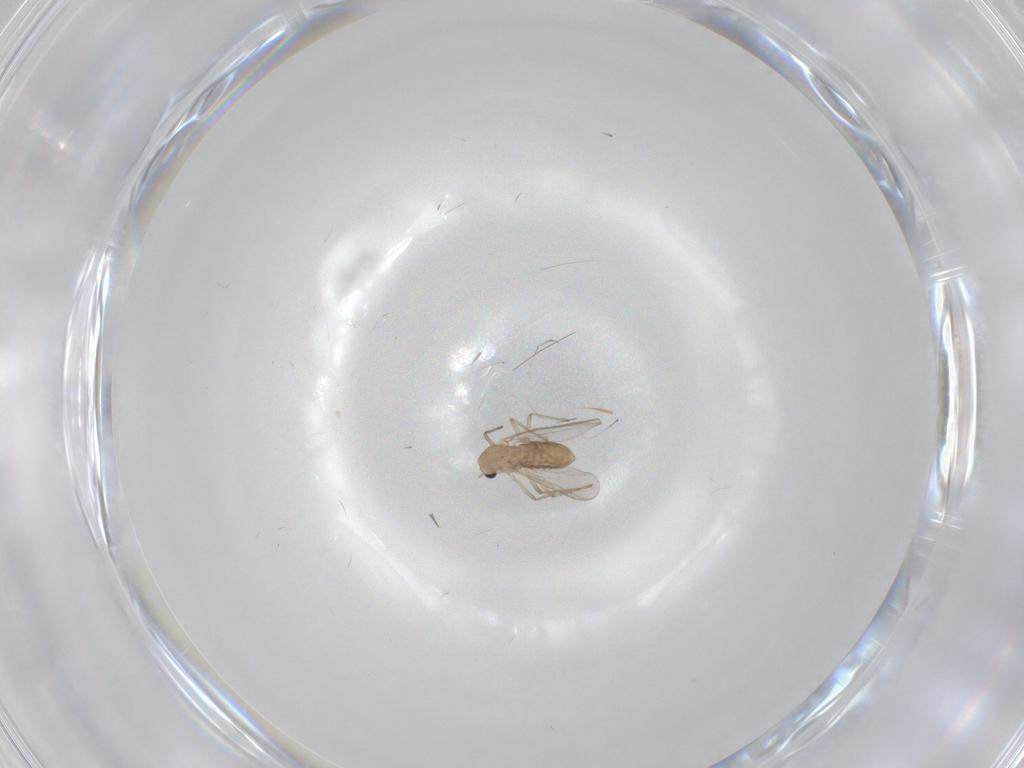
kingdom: Animalia
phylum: Arthropoda
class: Insecta
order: Diptera
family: Chironomidae
